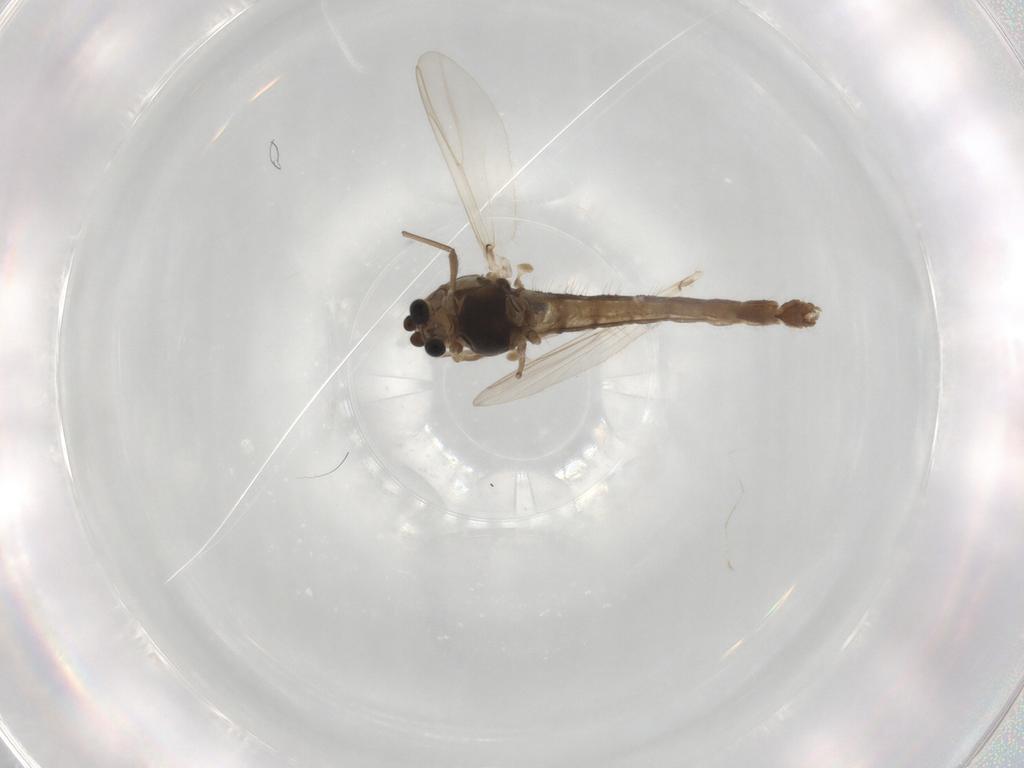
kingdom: Animalia
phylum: Arthropoda
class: Insecta
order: Diptera
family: Chironomidae
